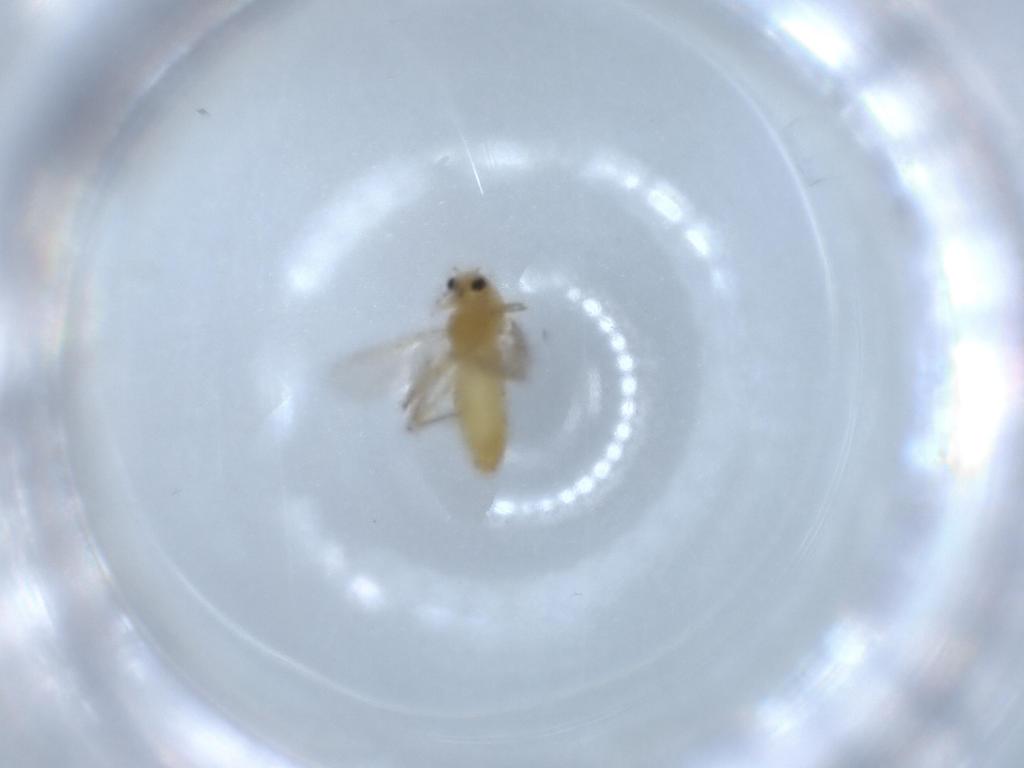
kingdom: Animalia
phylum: Arthropoda
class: Insecta
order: Diptera
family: Chironomidae
